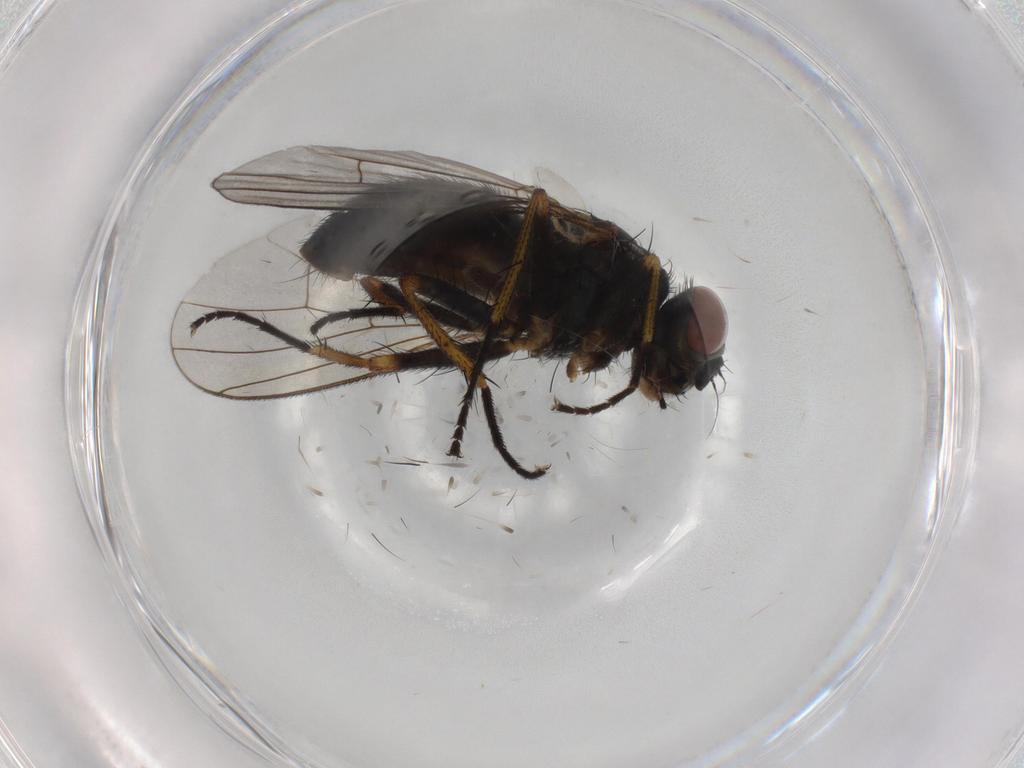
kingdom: Animalia
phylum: Arthropoda
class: Insecta
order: Diptera
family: Muscidae
